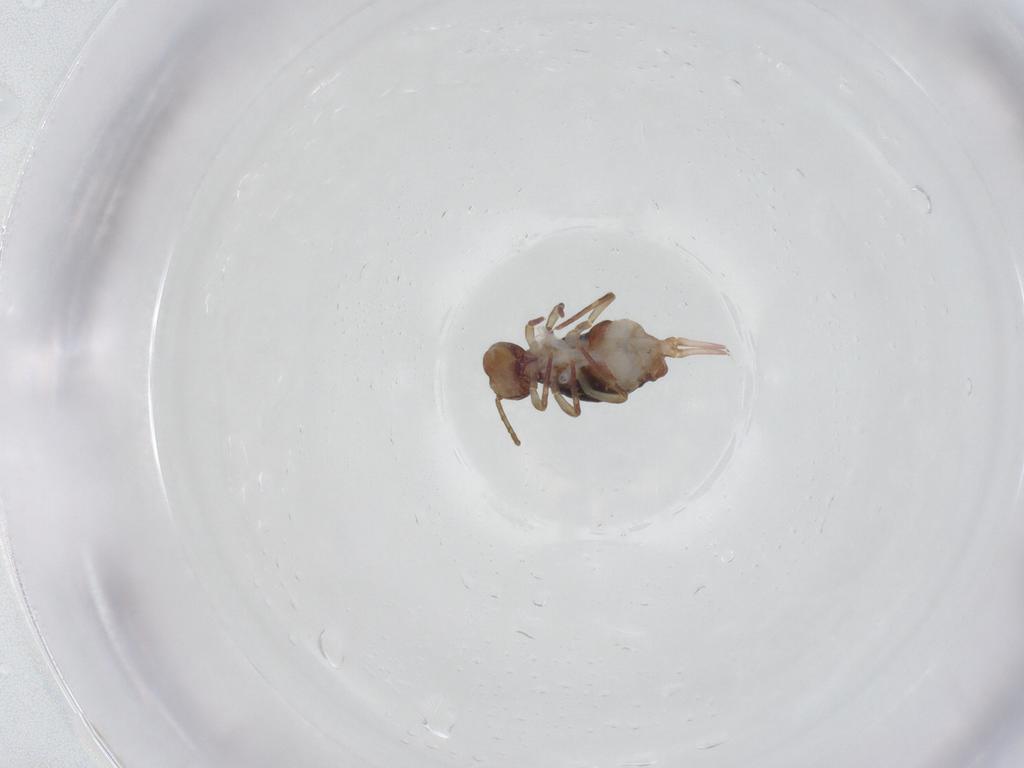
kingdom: Animalia
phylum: Arthropoda
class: Collembola
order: Symphypleona
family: Dicyrtomidae
